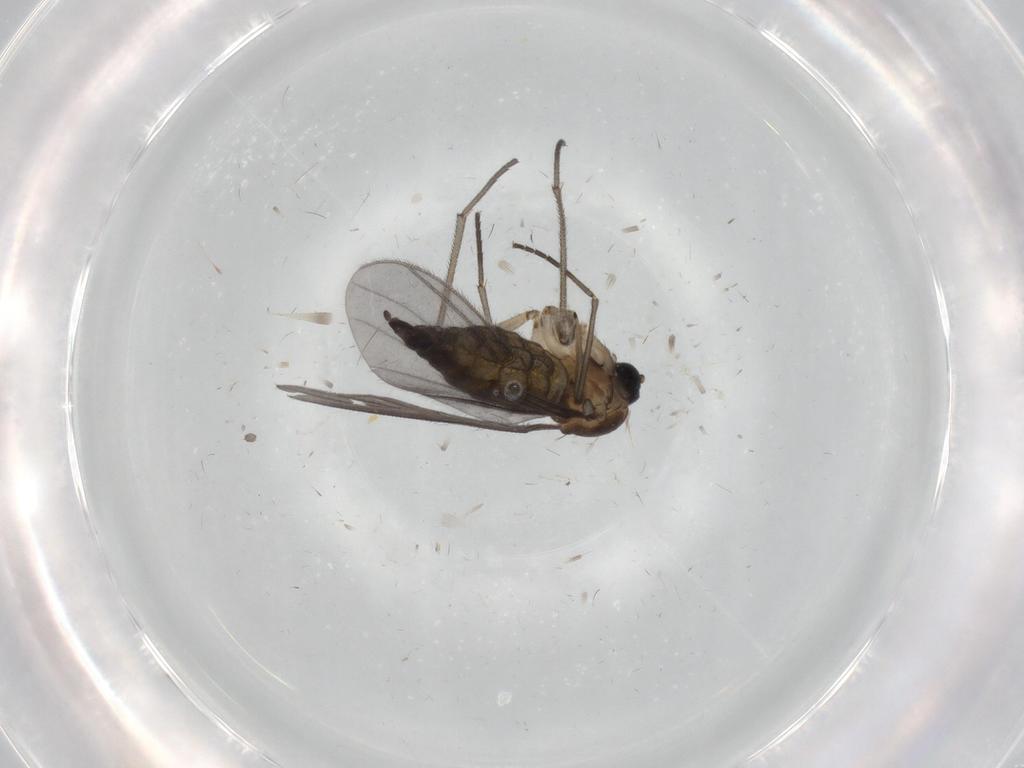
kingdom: Animalia
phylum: Arthropoda
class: Insecta
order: Diptera
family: Sciaridae
